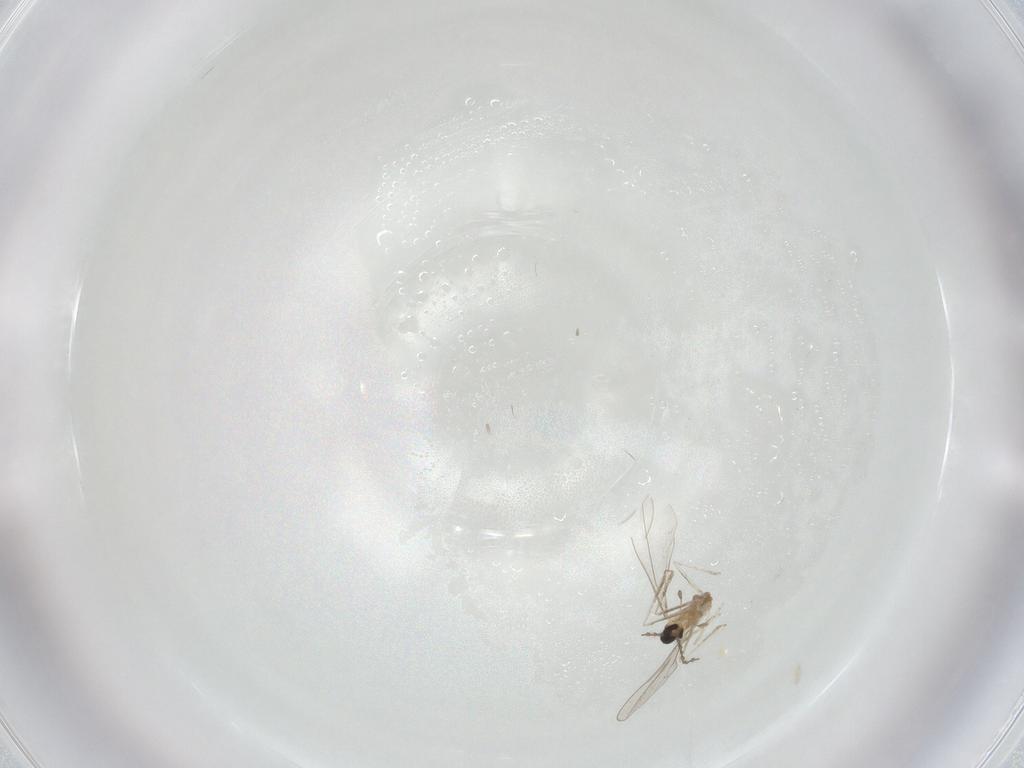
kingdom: Animalia
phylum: Arthropoda
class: Insecta
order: Diptera
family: Cecidomyiidae
